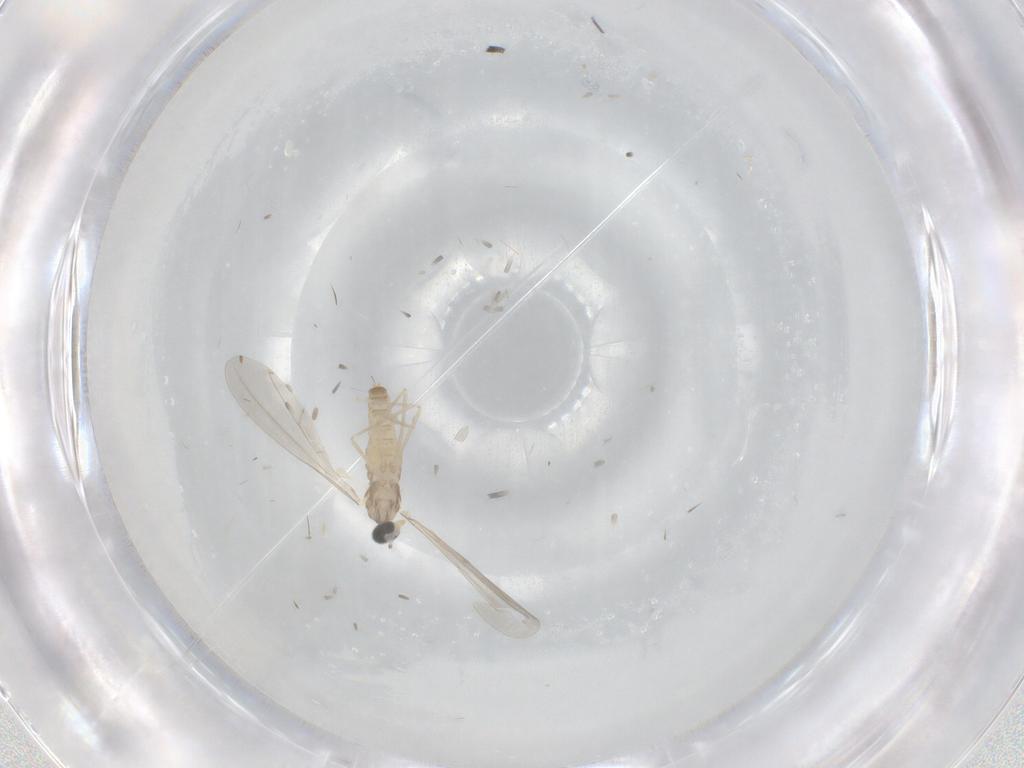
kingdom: Animalia
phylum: Arthropoda
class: Insecta
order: Diptera
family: Cecidomyiidae
